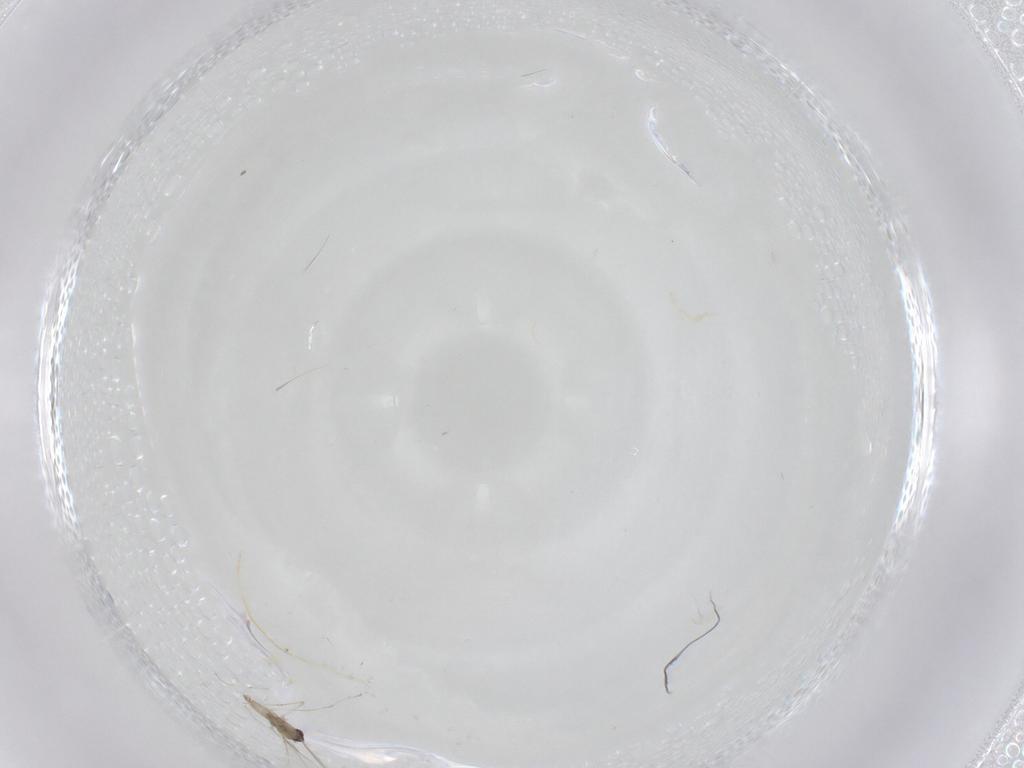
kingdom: Animalia
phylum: Arthropoda
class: Insecta
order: Diptera
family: Cecidomyiidae
